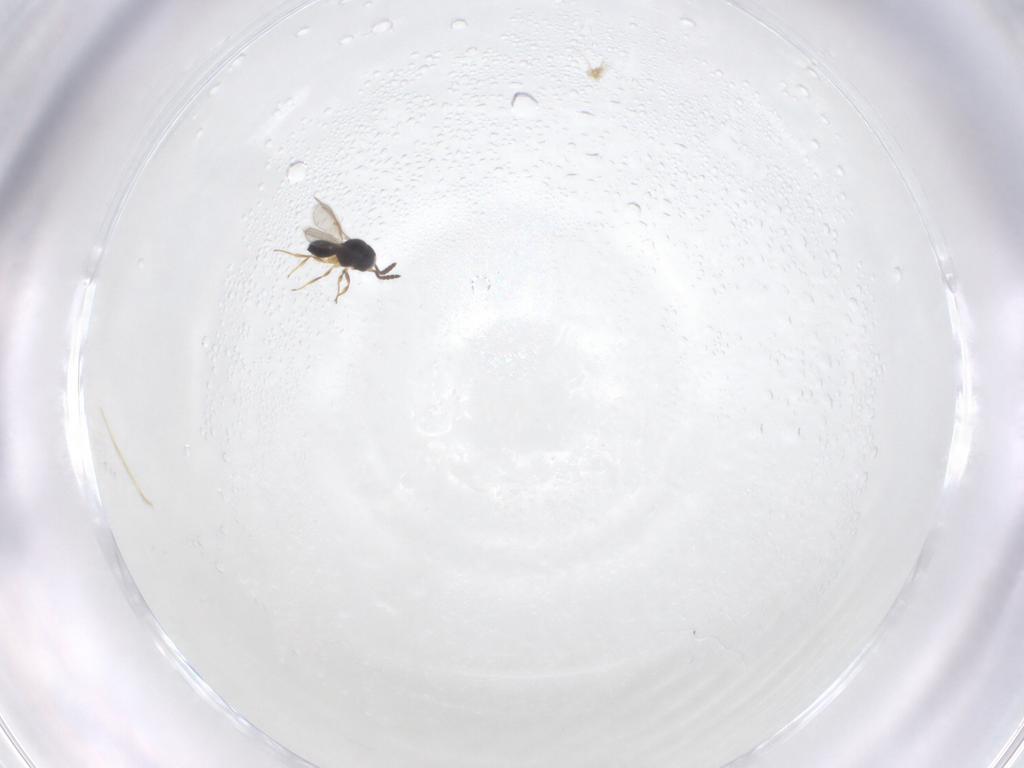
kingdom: Animalia
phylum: Arthropoda
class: Insecta
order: Hymenoptera
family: Scelionidae
